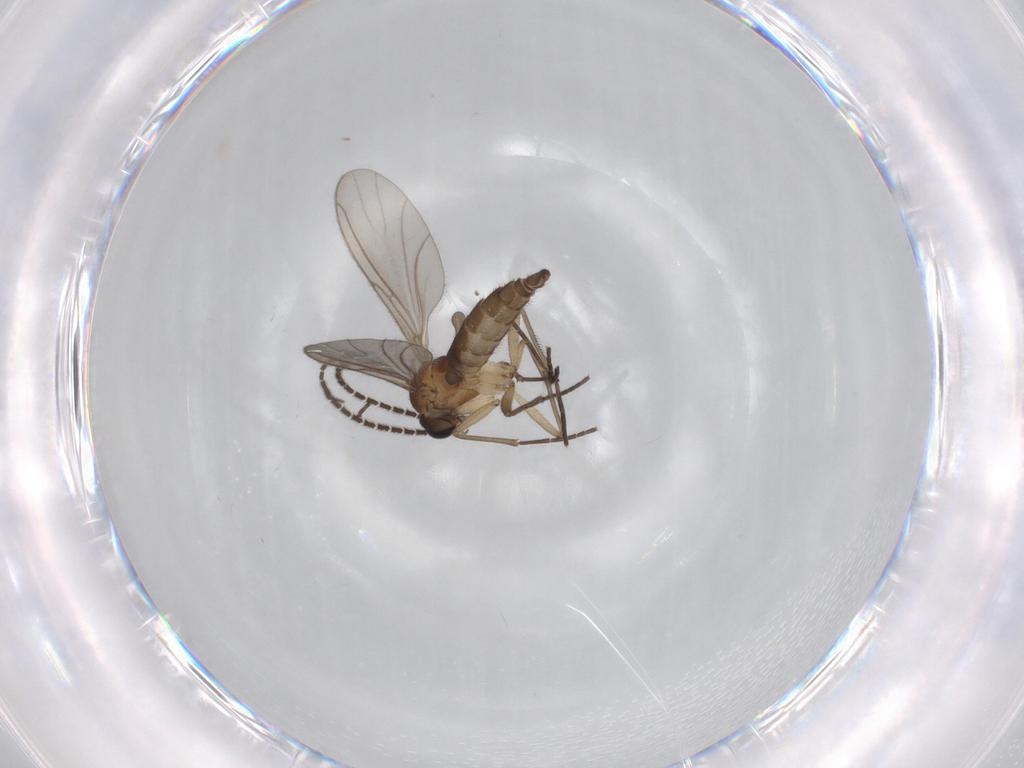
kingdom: Animalia
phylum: Arthropoda
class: Insecta
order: Diptera
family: Sciaridae
